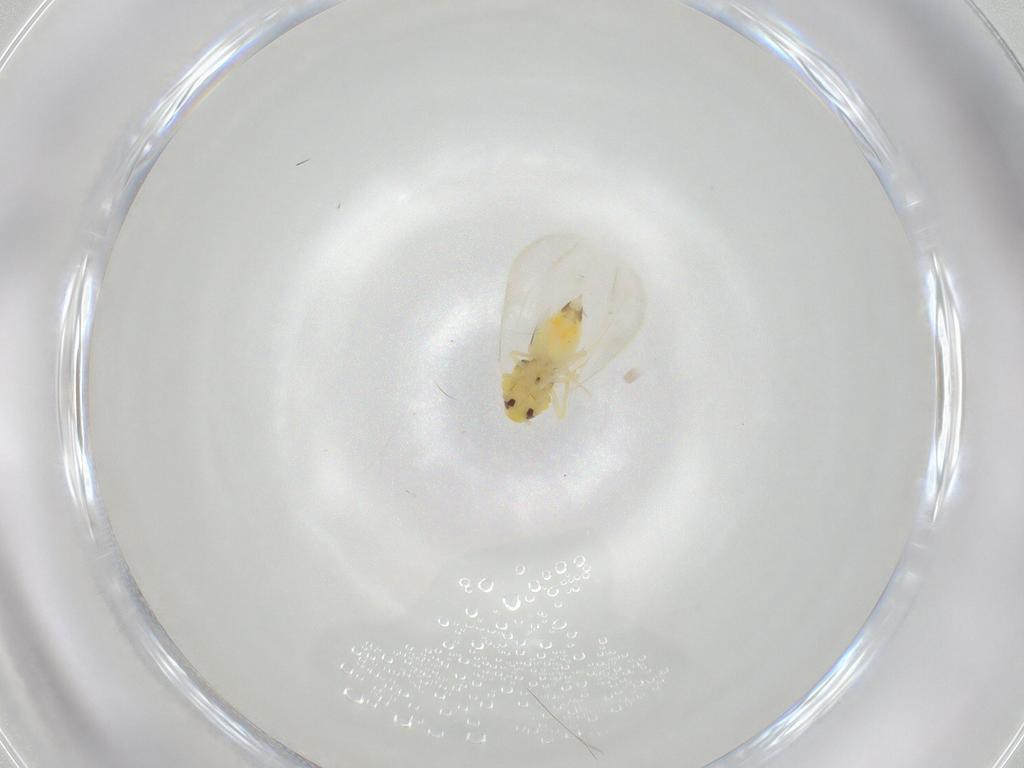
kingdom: Animalia
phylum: Arthropoda
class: Insecta
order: Hemiptera
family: Aleyrodidae
